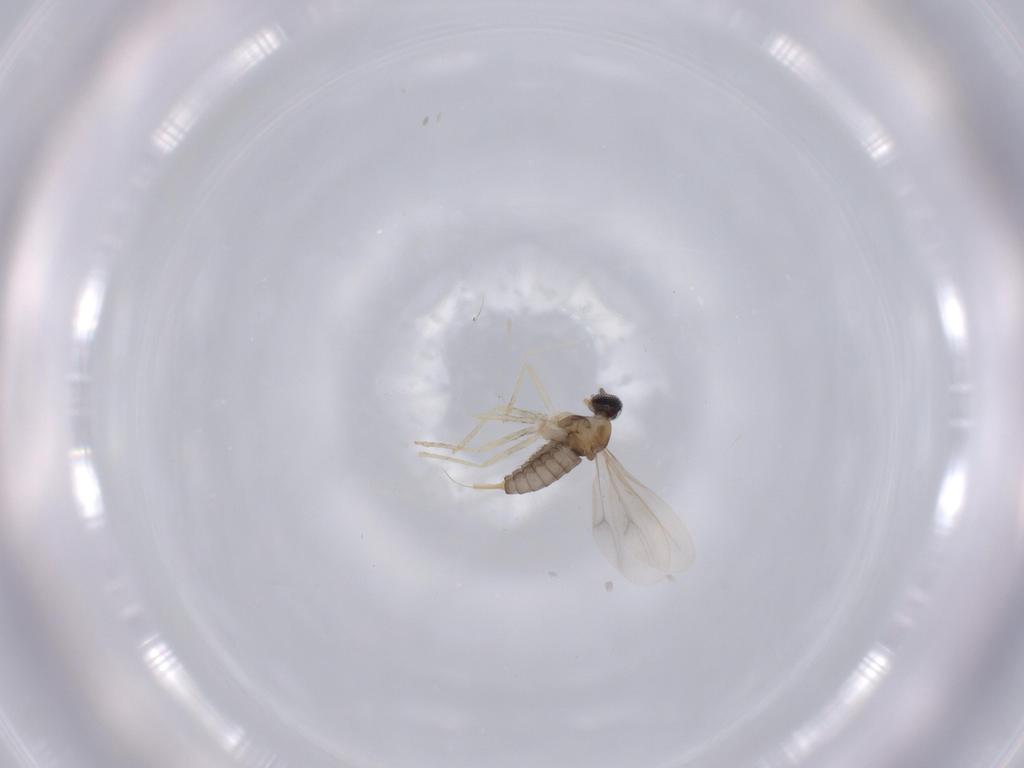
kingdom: Animalia
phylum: Arthropoda
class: Insecta
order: Diptera
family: Cecidomyiidae
